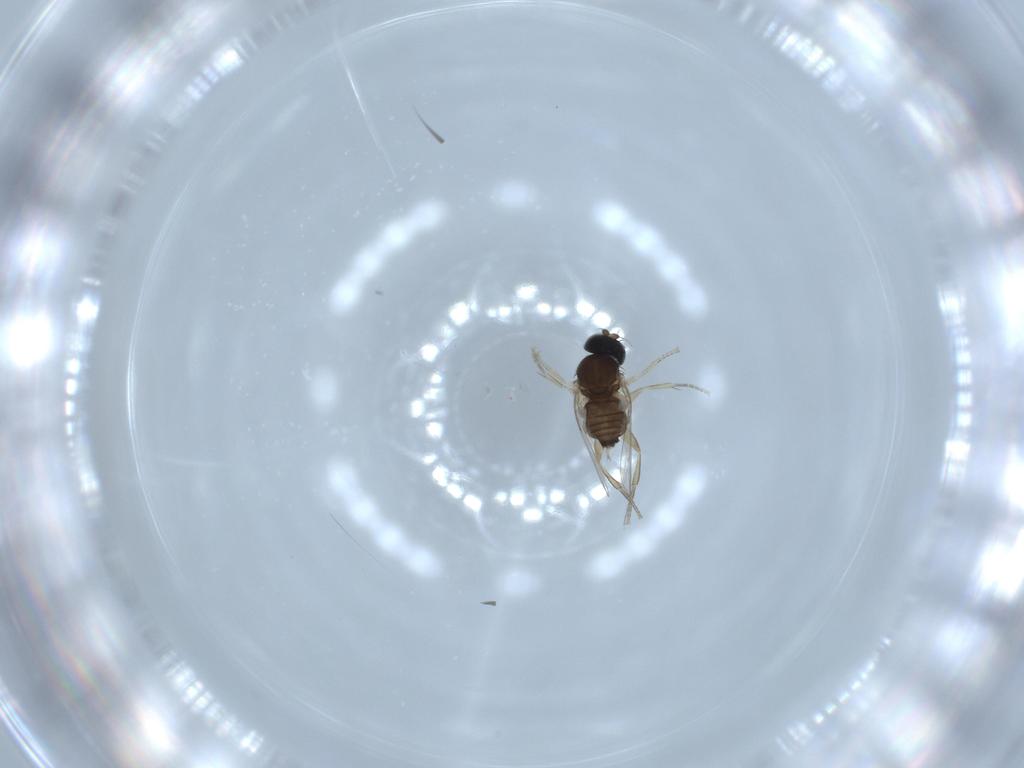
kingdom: Animalia
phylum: Arthropoda
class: Insecta
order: Diptera
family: Phoridae
